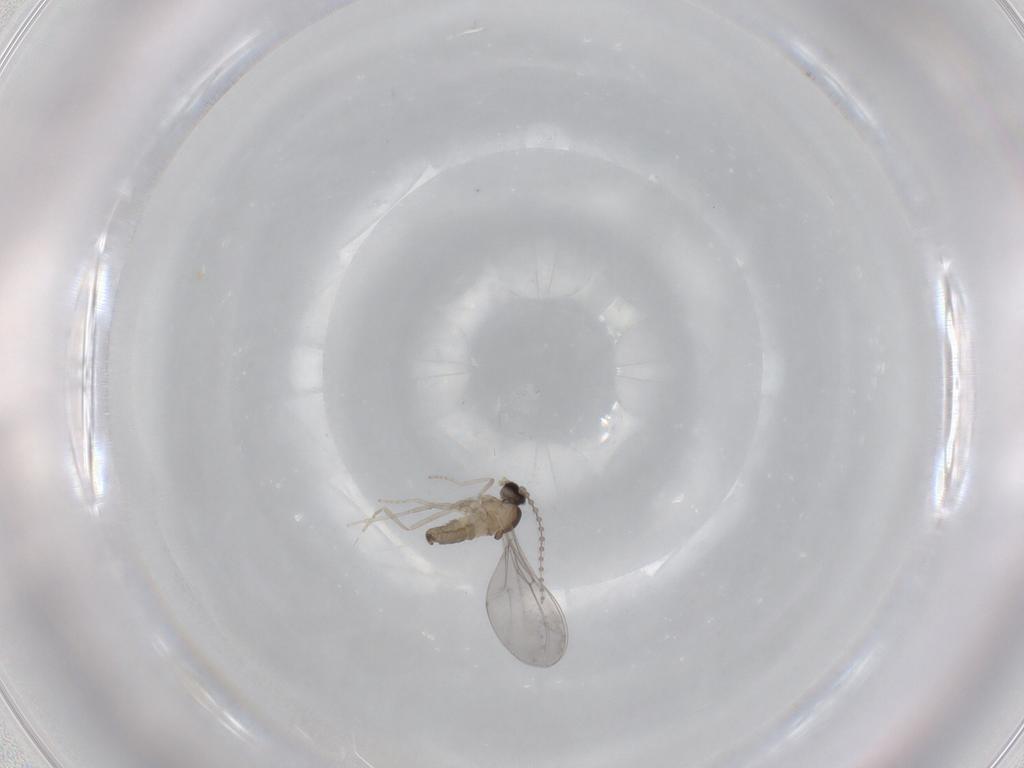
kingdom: Animalia
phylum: Arthropoda
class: Insecta
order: Diptera
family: Cecidomyiidae
